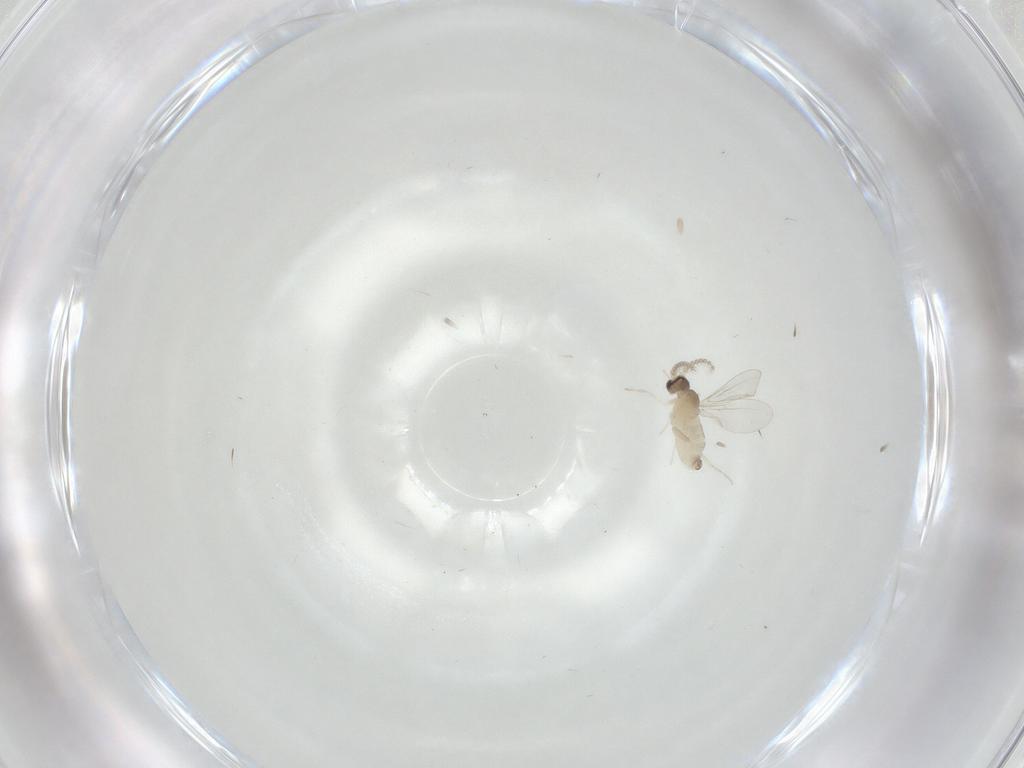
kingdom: Animalia
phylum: Arthropoda
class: Insecta
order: Diptera
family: Cecidomyiidae
